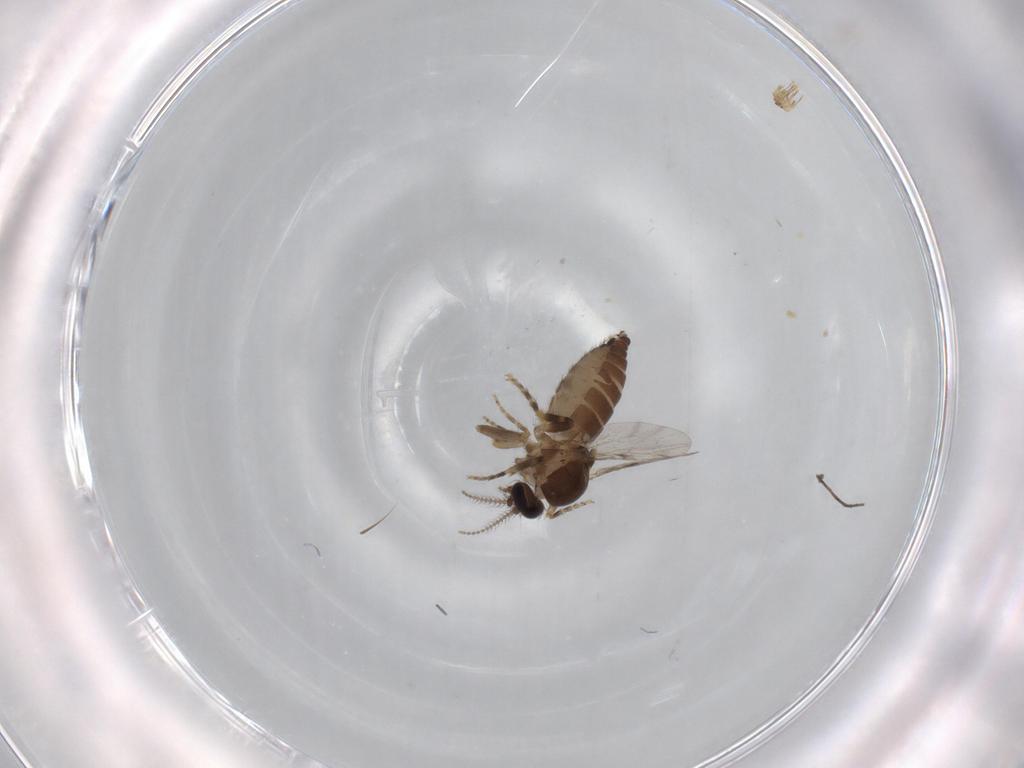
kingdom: Animalia
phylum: Arthropoda
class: Insecta
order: Diptera
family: Ceratopogonidae
